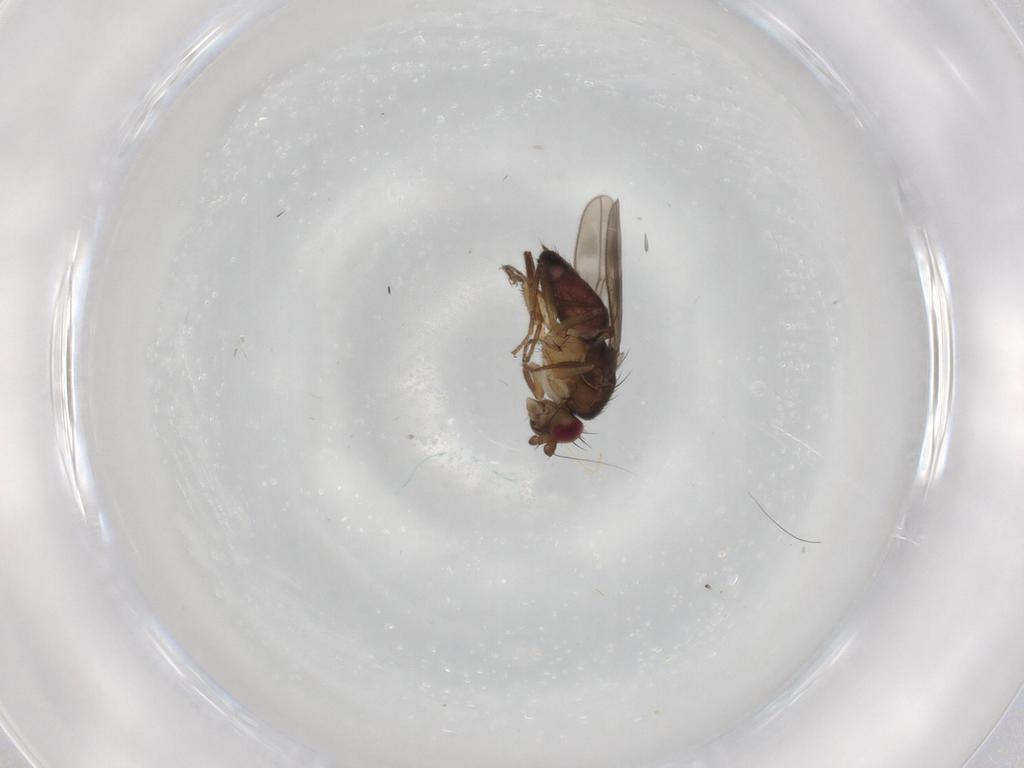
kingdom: Animalia
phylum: Arthropoda
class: Insecta
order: Diptera
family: Sphaeroceridae
